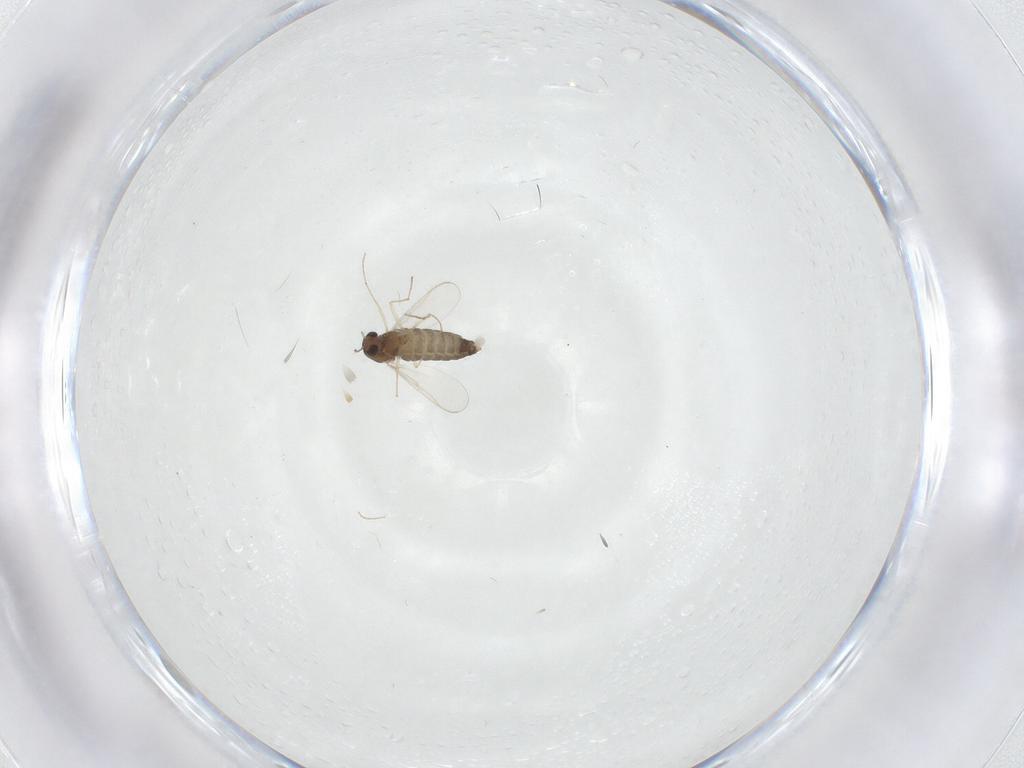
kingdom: Animalia
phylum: Arthropoda
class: Insecta
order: Diptera
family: Chironomidae
